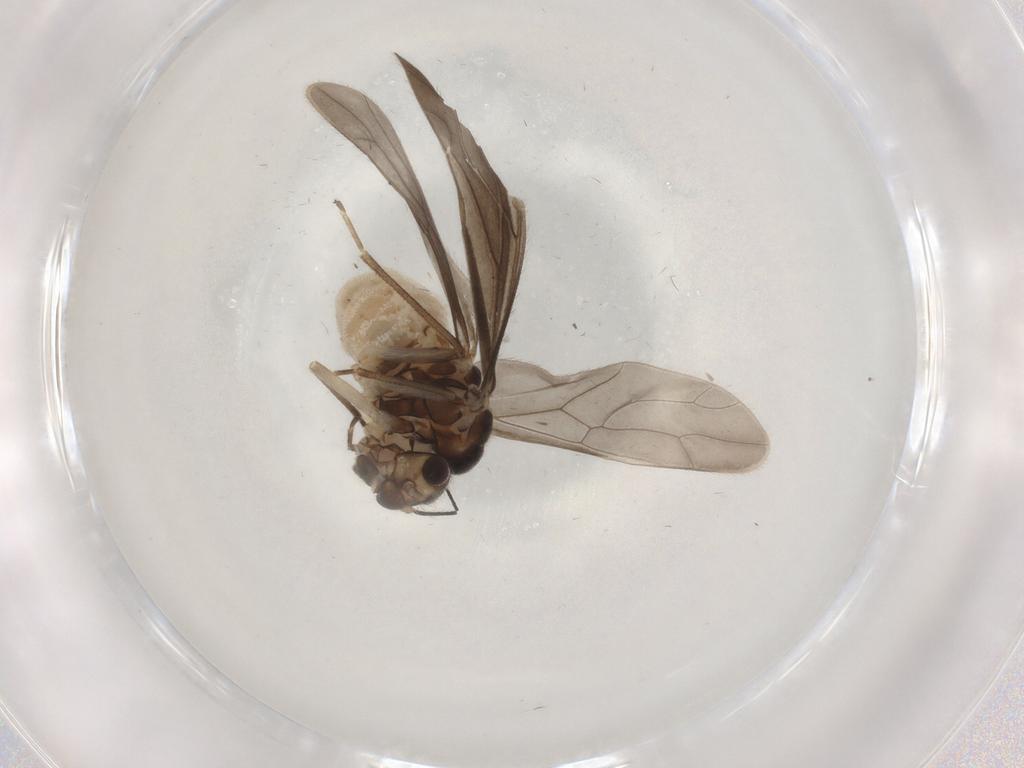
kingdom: Animalia
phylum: Arthropoda
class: Insecta
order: Psocodea
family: Caeciliusidae
